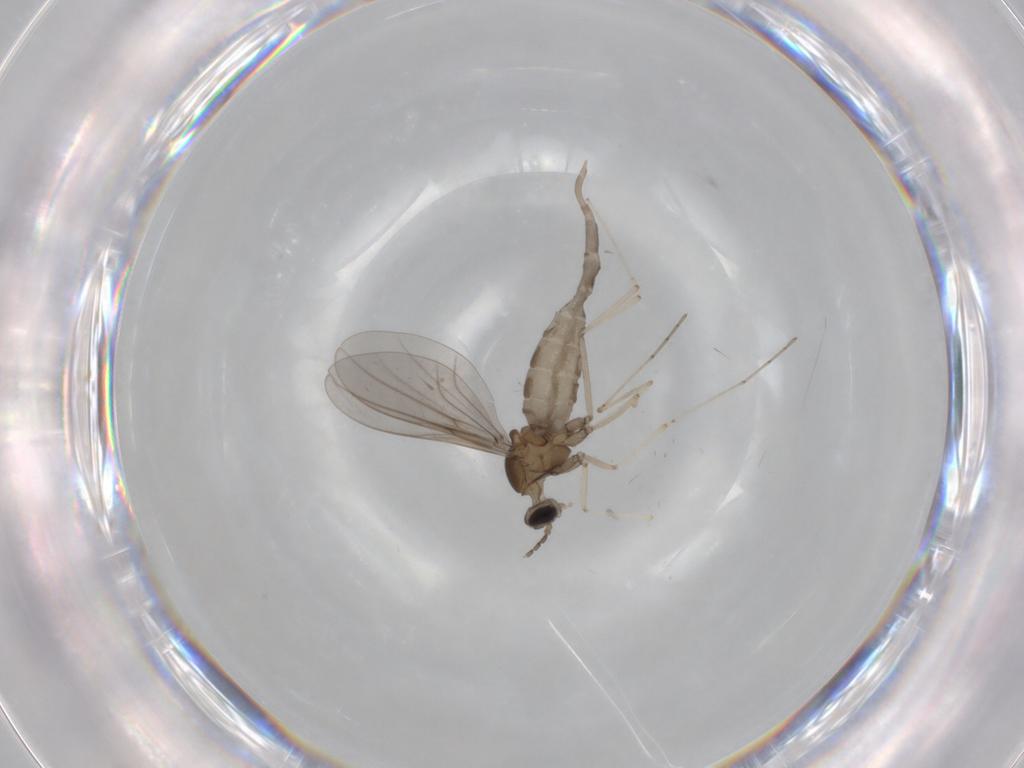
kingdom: Animalia
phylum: Arthropoda
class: Insecta
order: Diptera
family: Cecidomyiidae
